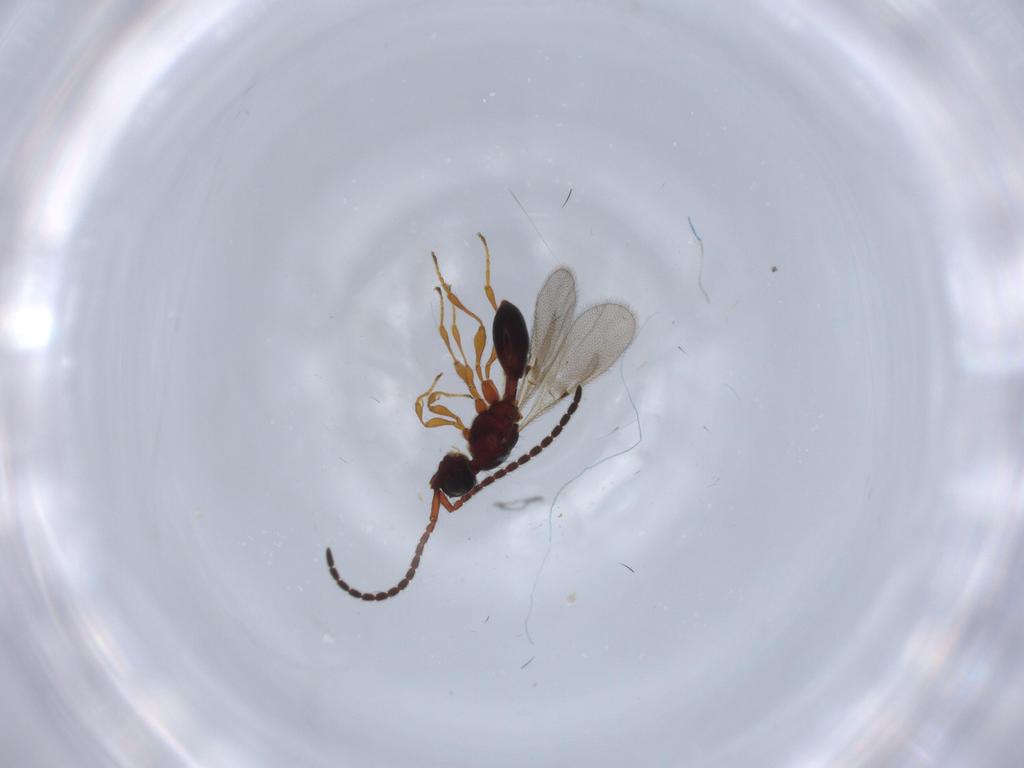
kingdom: Animalia
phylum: Arthropoda
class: Insecta
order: Hymenoptera
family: Diapriidae
